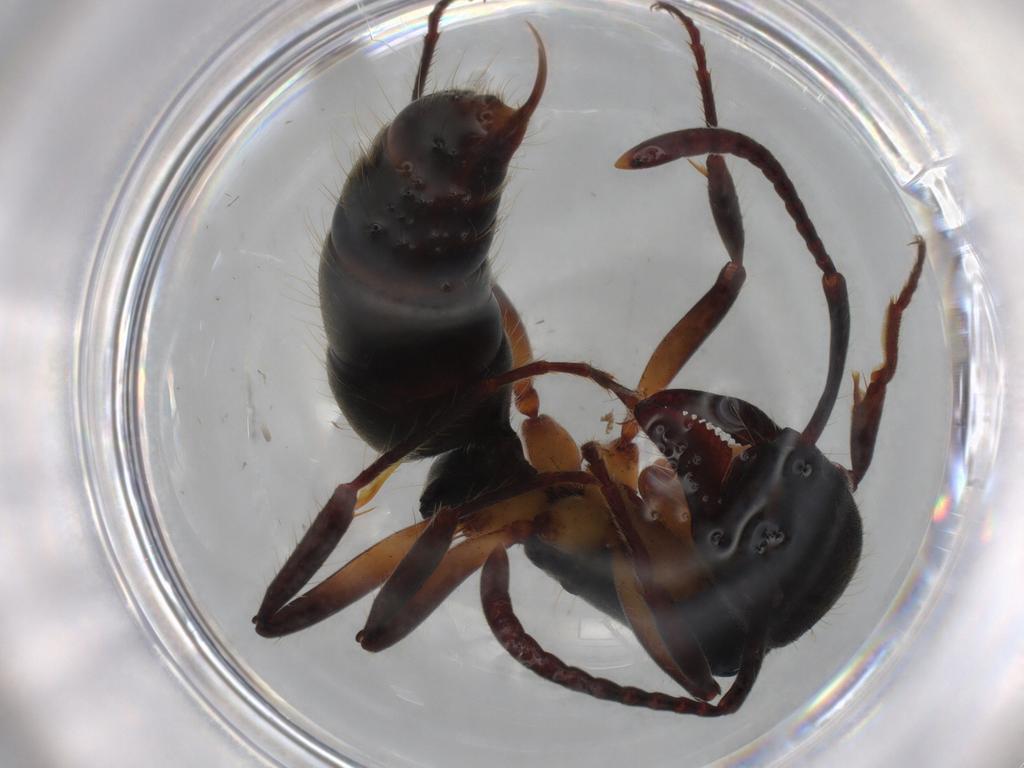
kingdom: Animalia
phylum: Arthropoda
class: Insecta
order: Hymenoptera
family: Formicidae
